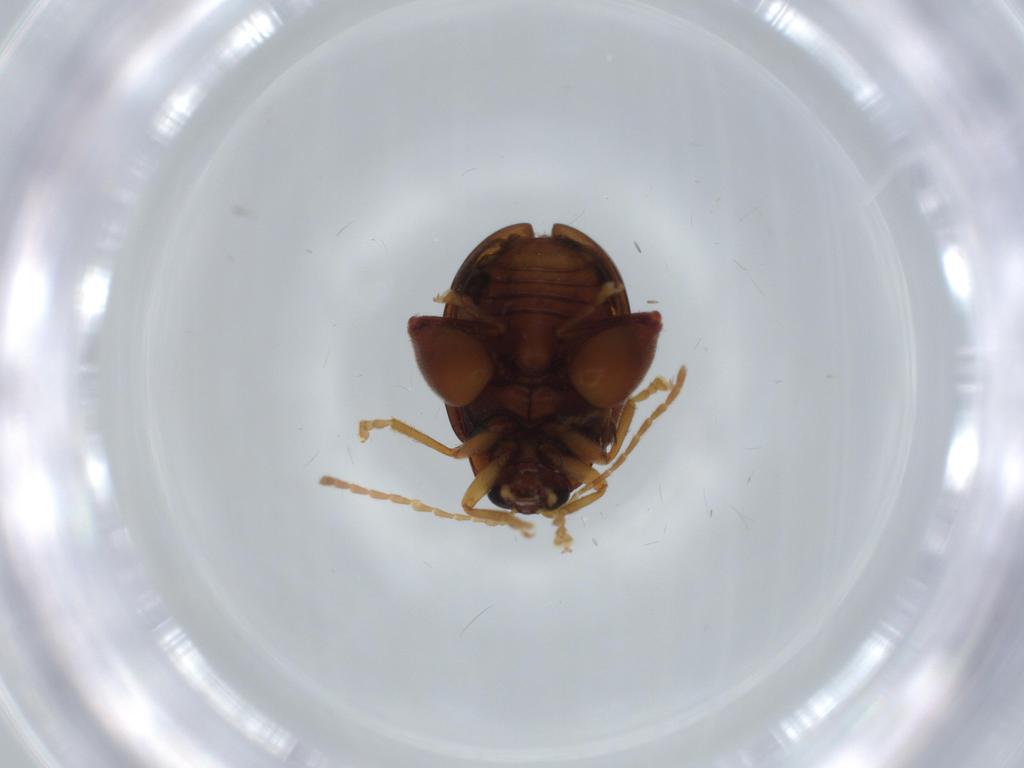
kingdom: Animalia
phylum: Arthropoda
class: Insecta
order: Coleoptera
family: Chrysomelidae
